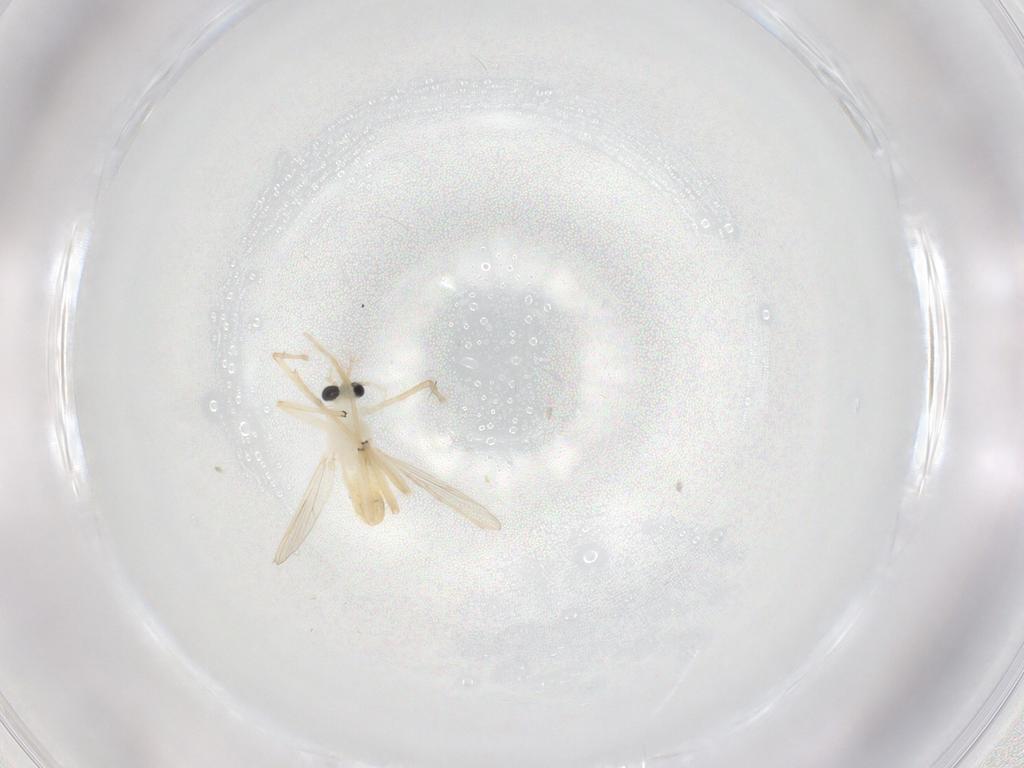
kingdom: Animalia
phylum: Arthropoda
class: Insecta
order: Diptera
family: Chironomidae
